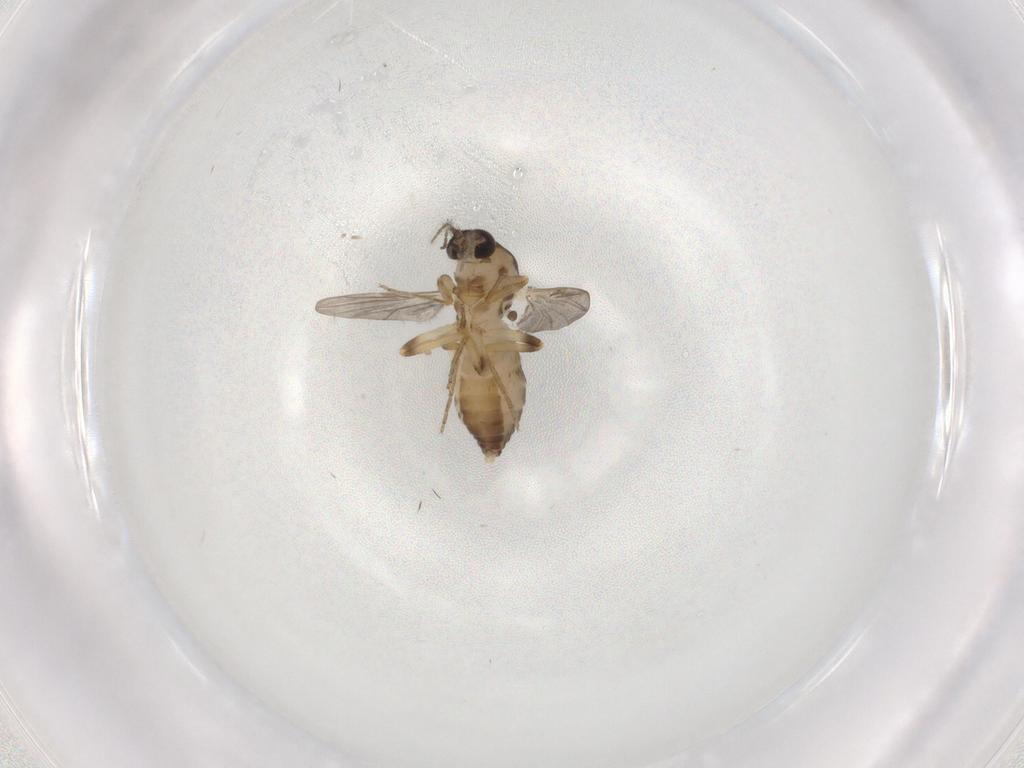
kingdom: Animalia
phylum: Arthropoda
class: Insecta
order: Diptera
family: Ceratopogonidae
